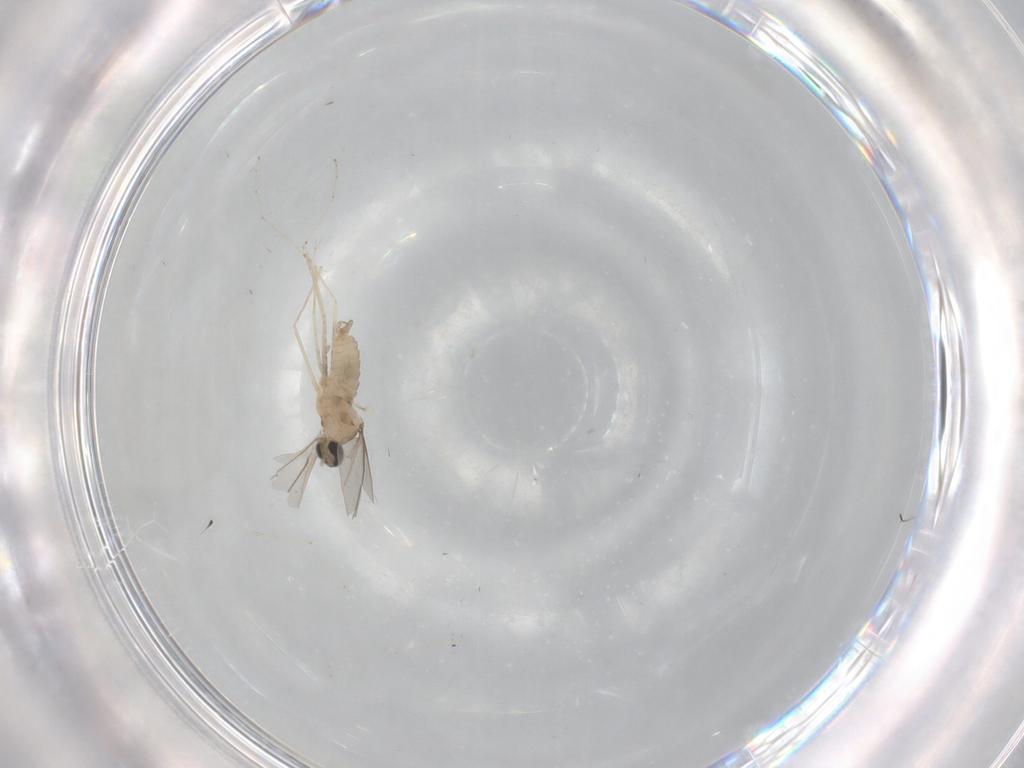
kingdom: Animalia
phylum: Arthropoda
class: Insecta
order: Diptera
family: Cecidomyiidae
